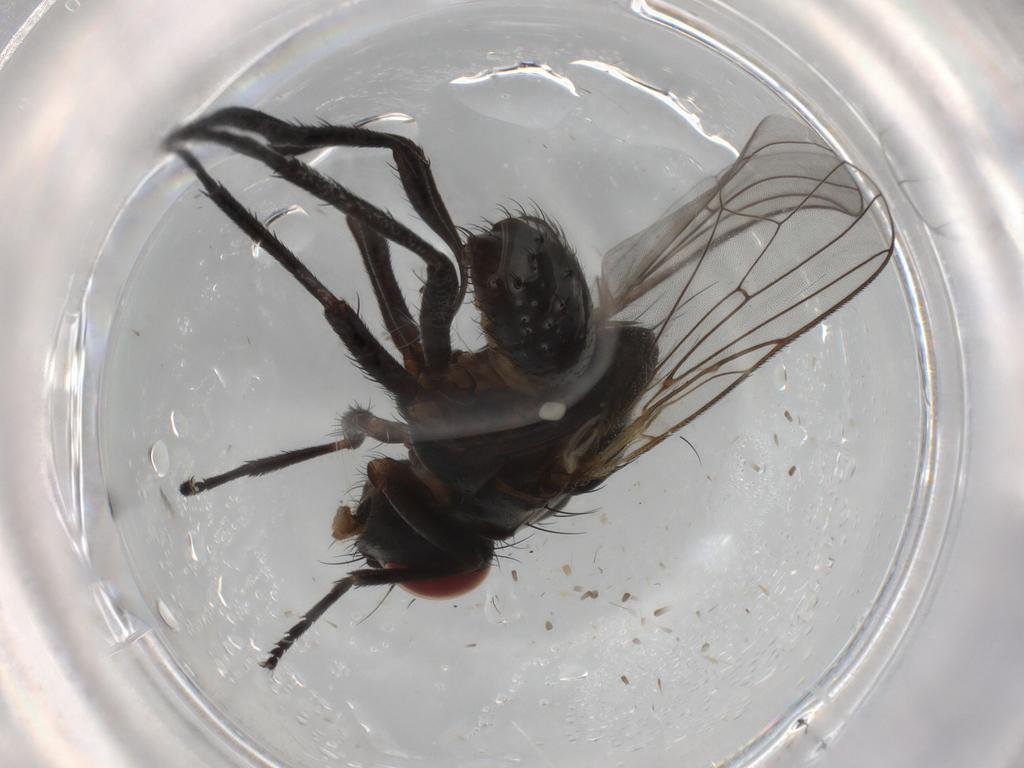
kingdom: Animalia
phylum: Arthropoda
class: Insecta
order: Diptera
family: Anthomyiidae
